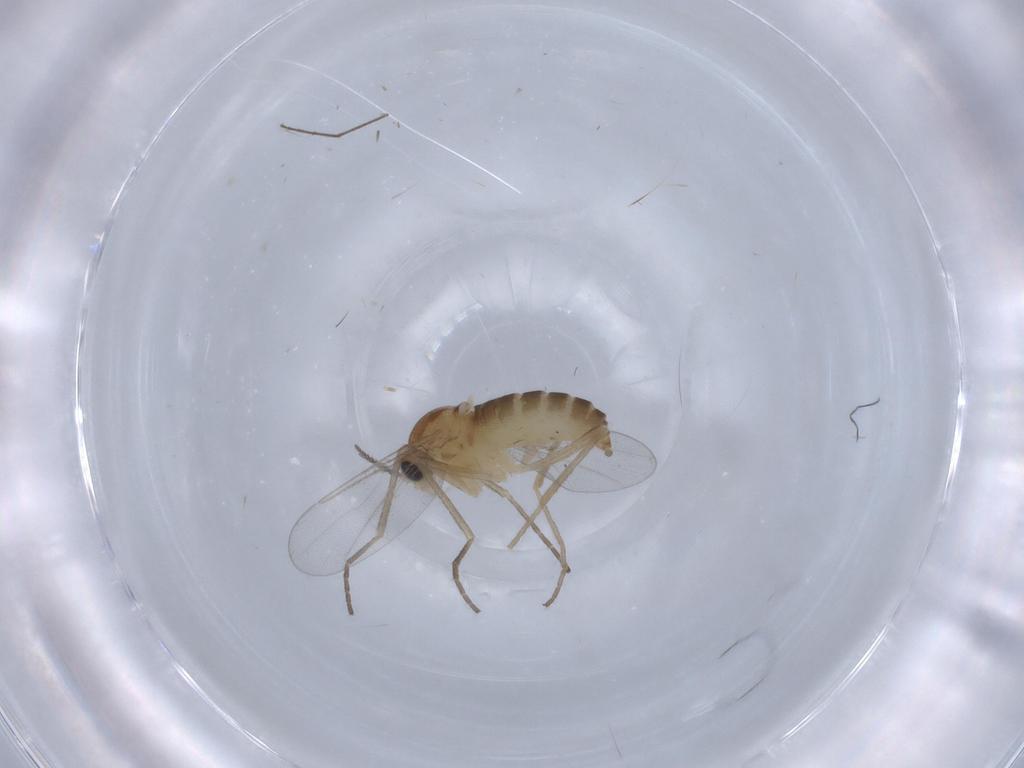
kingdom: Animalia
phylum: Arthropoda
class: Insecta
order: Diptera
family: Cecidomyiidae
